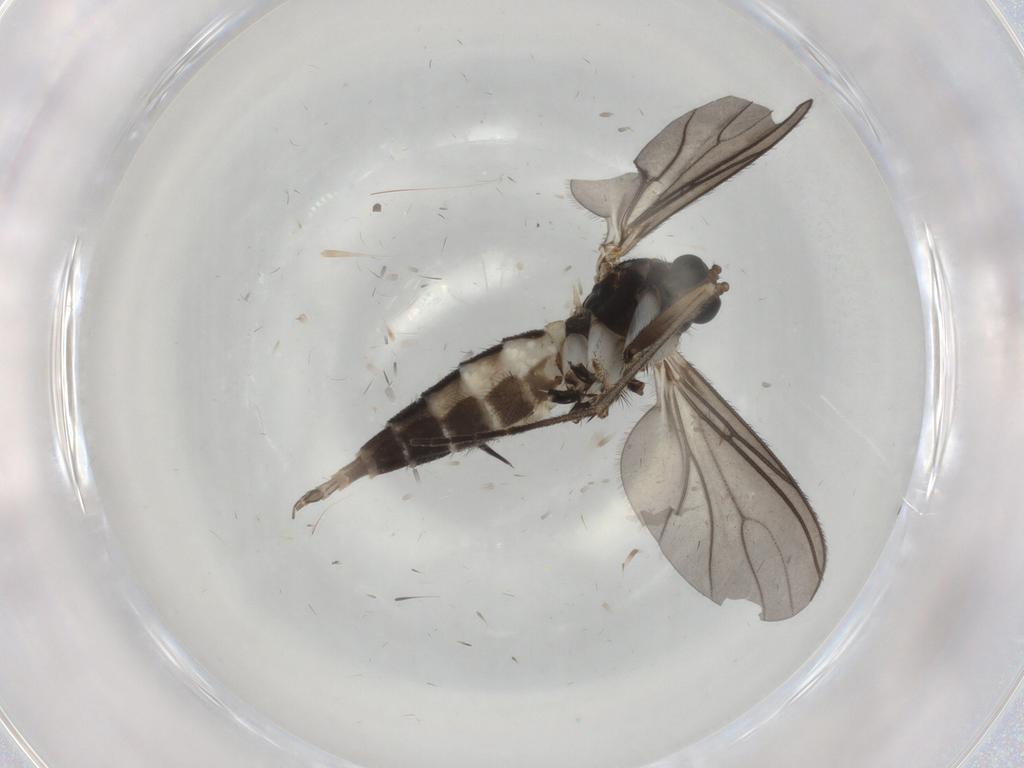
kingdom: Animalia
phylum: Arthropoda
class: Insecta
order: Diptera
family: Sciaridae
